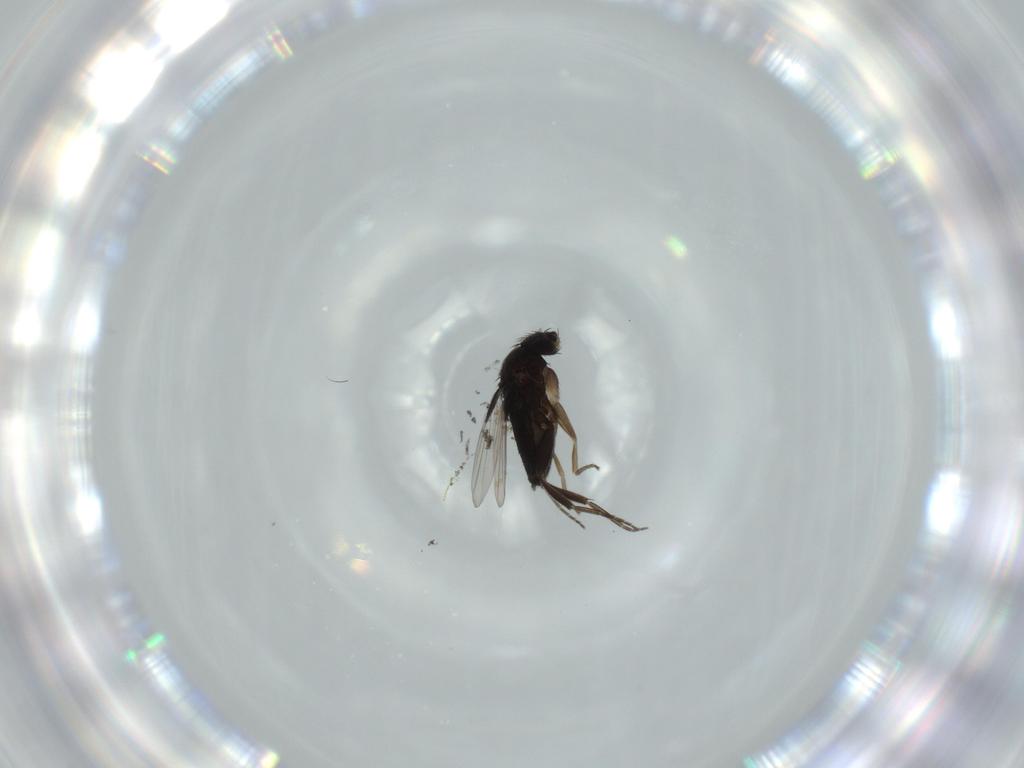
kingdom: Animalia
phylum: Arthropoda
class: Insecta
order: Diptera
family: Phoridae
